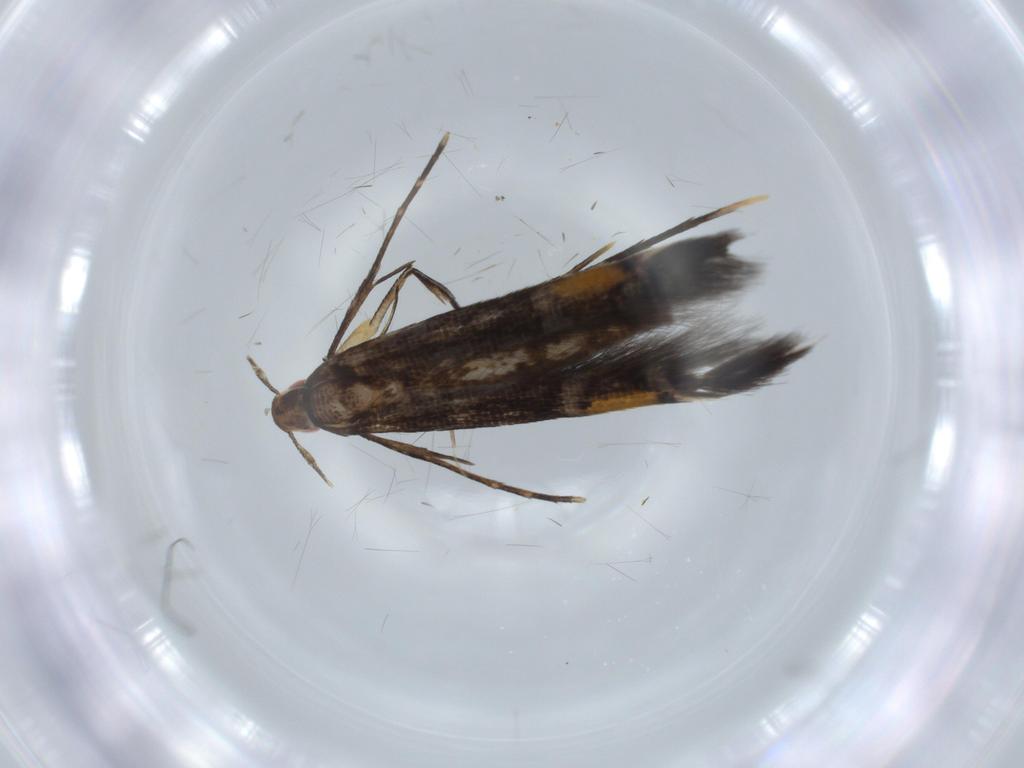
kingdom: Animalia
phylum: Arthropoda
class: Insecta
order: Lepidoptera
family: Cosmopterigidae
